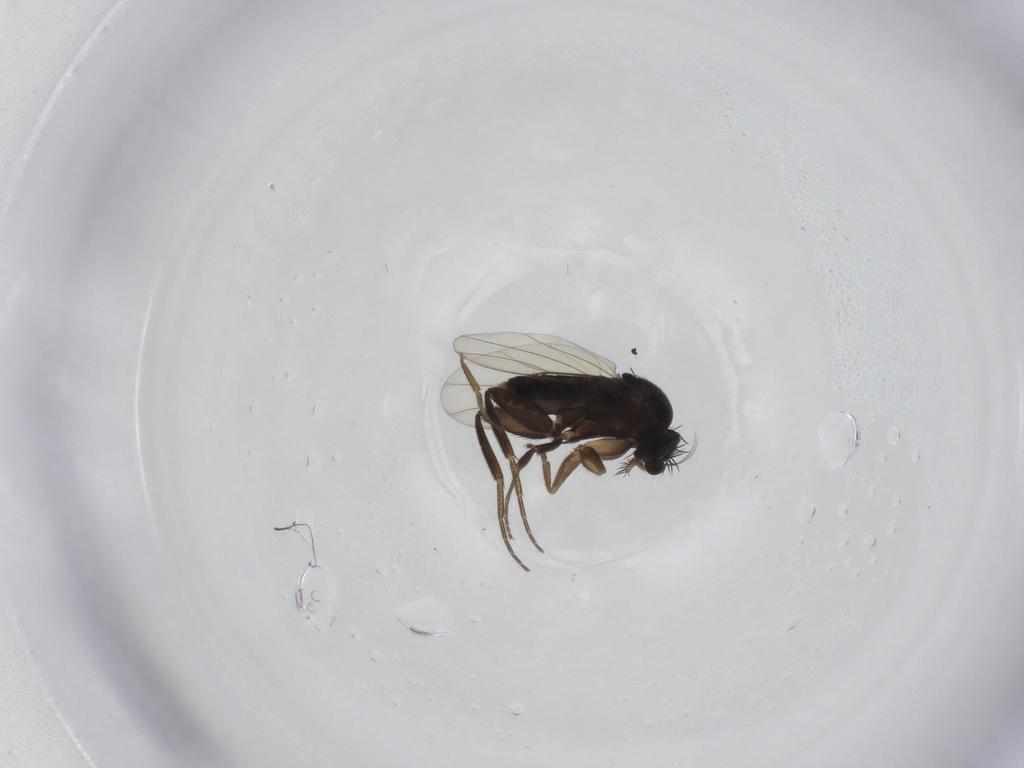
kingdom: Animalia
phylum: Arthropoda
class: Insecta
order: Diptera
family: Phoridae
